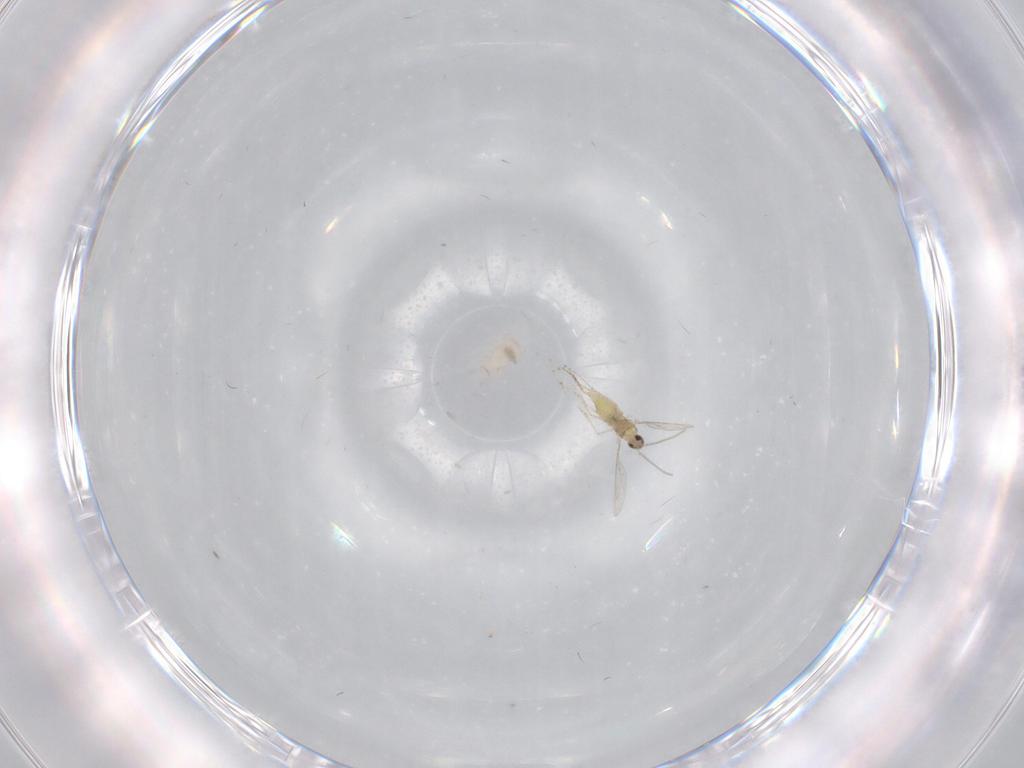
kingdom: Animalia
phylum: Arthropoda
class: Insecta
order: Diptera
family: Cecidomyiidae
